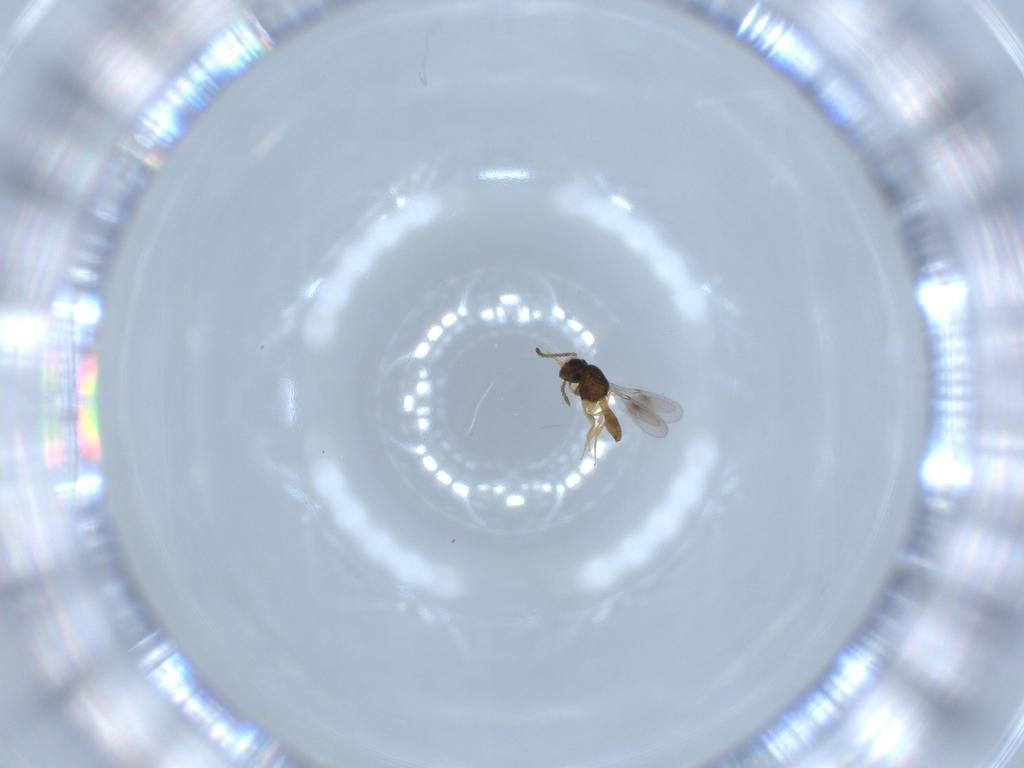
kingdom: Animalia
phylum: Arthropoda
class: Insecta
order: Hymenoptera
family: Scelionidae
